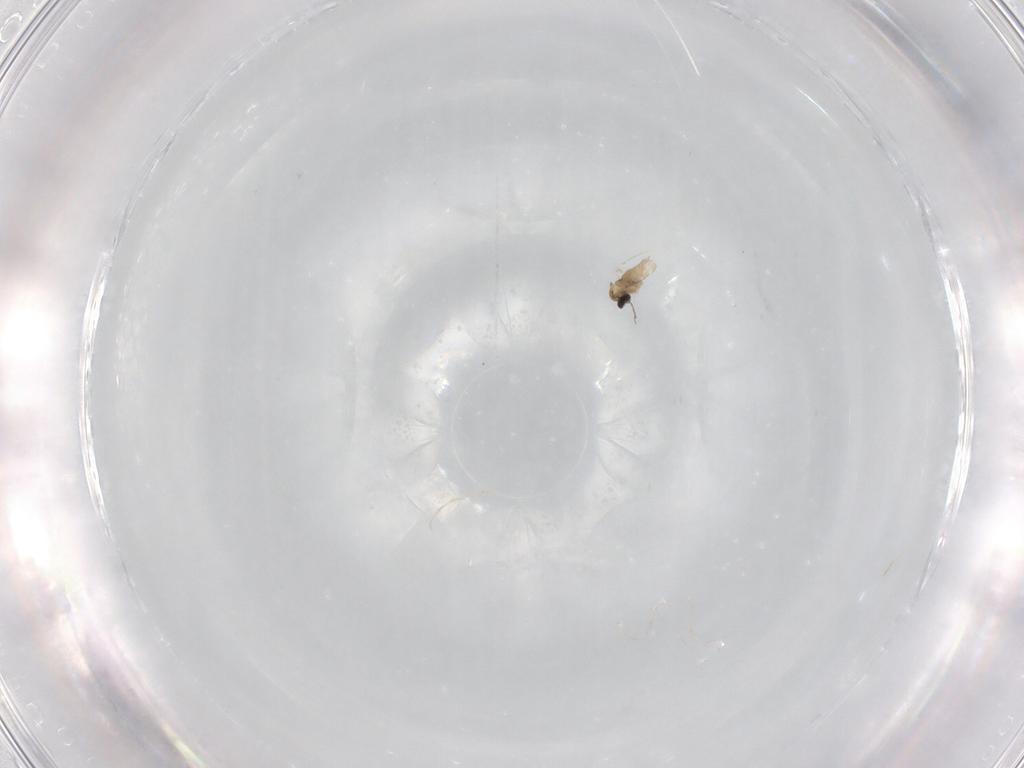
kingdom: Animalia
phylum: Arthropoda
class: Insecta
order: Diptera
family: Cecidomyiidae
